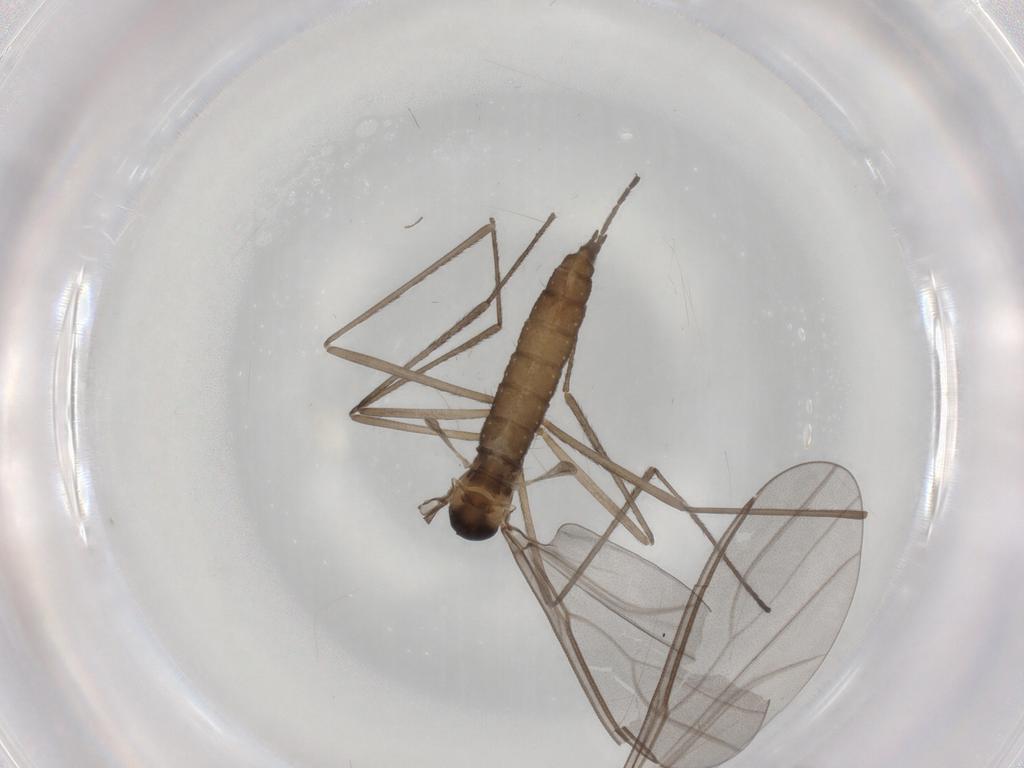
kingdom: Animalia
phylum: Arthropoda
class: Insecta
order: Diptera
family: Cecidomyiidae
